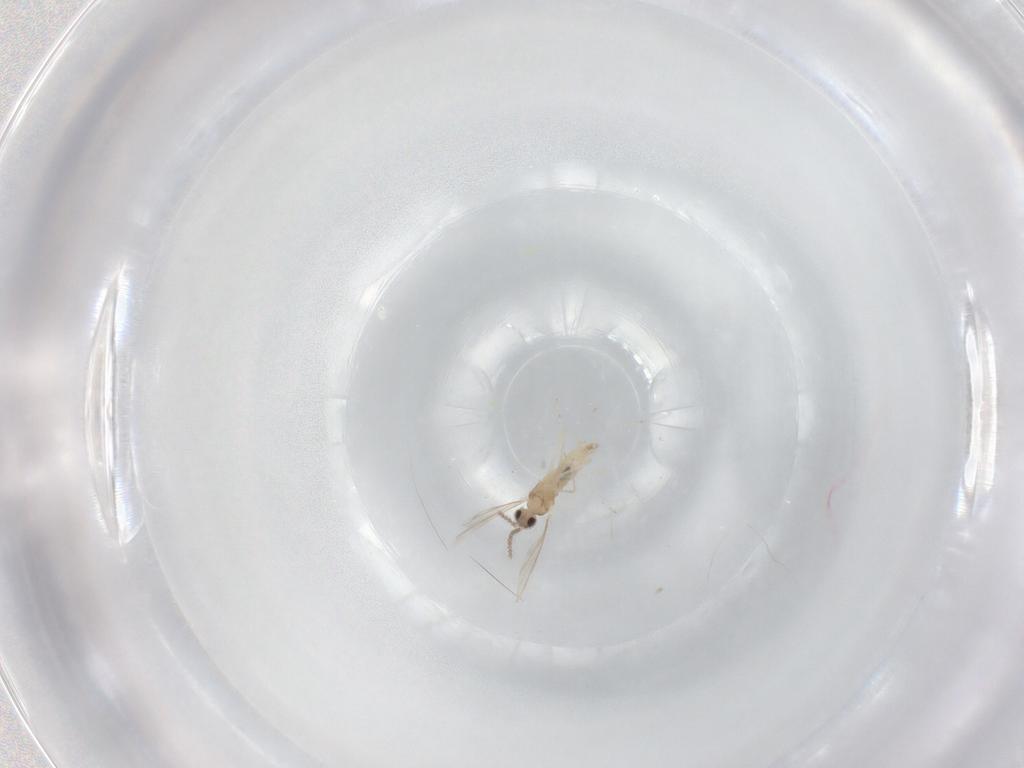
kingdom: Animalia
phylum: Arthropoda
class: Insecta
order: Diptera
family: Cecidomyiidae
